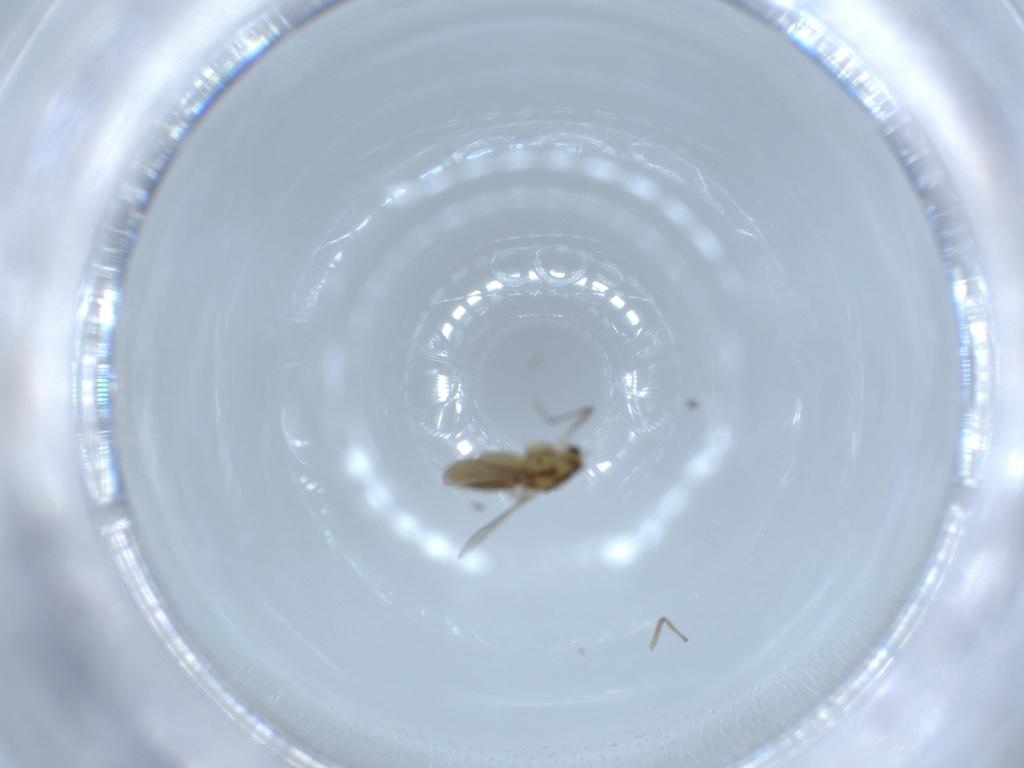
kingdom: Animalia
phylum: Arthropoda
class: Insecta
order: Diptera
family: Chironomidae
